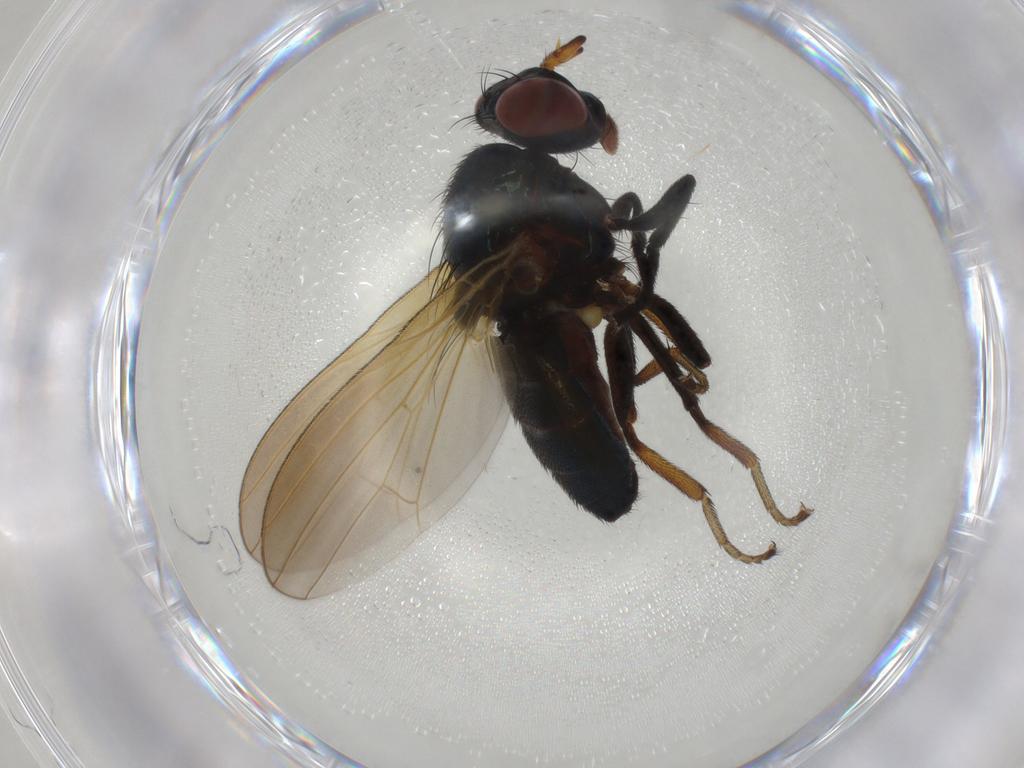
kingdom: Animalia
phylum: Arthropoda
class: Insecta
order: Diptera
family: Lauxaniidae
